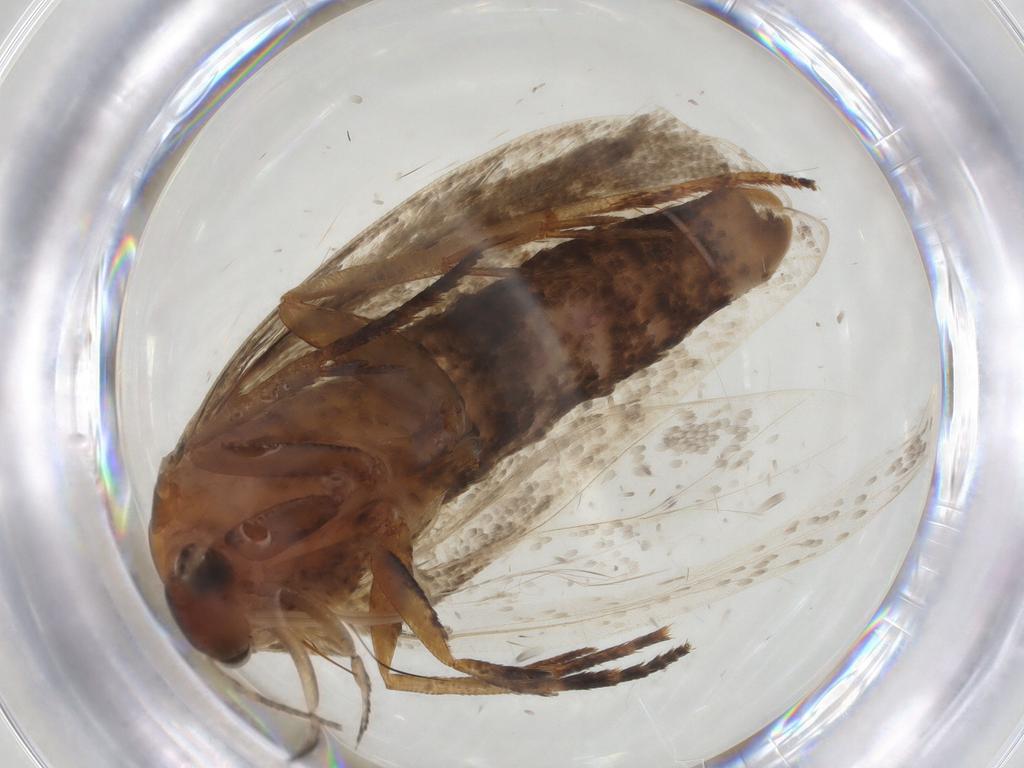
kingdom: Animalia
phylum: Arthropoda
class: Insecta
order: Lepidoptera
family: Gelechiidae
